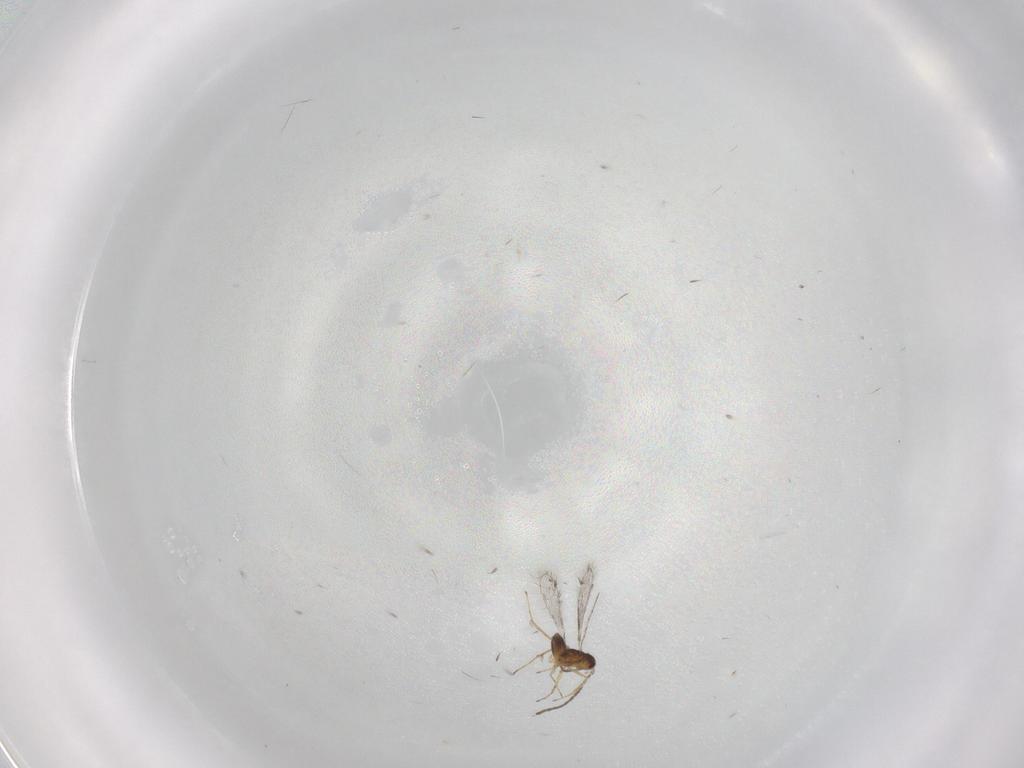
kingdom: Animalia
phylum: Arthropoda
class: Insecta
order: Hymenoptera
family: Mymaridae
